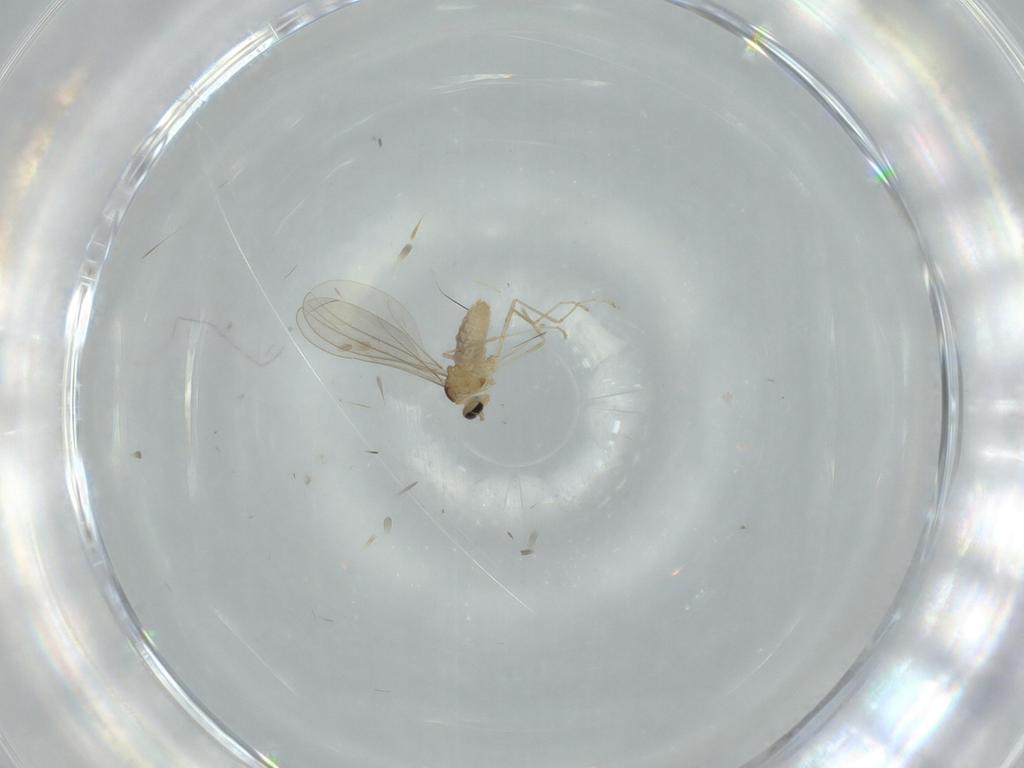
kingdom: Animalia
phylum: Arthropoda
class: Insecta
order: Diptera
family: Cecidomyiidae
